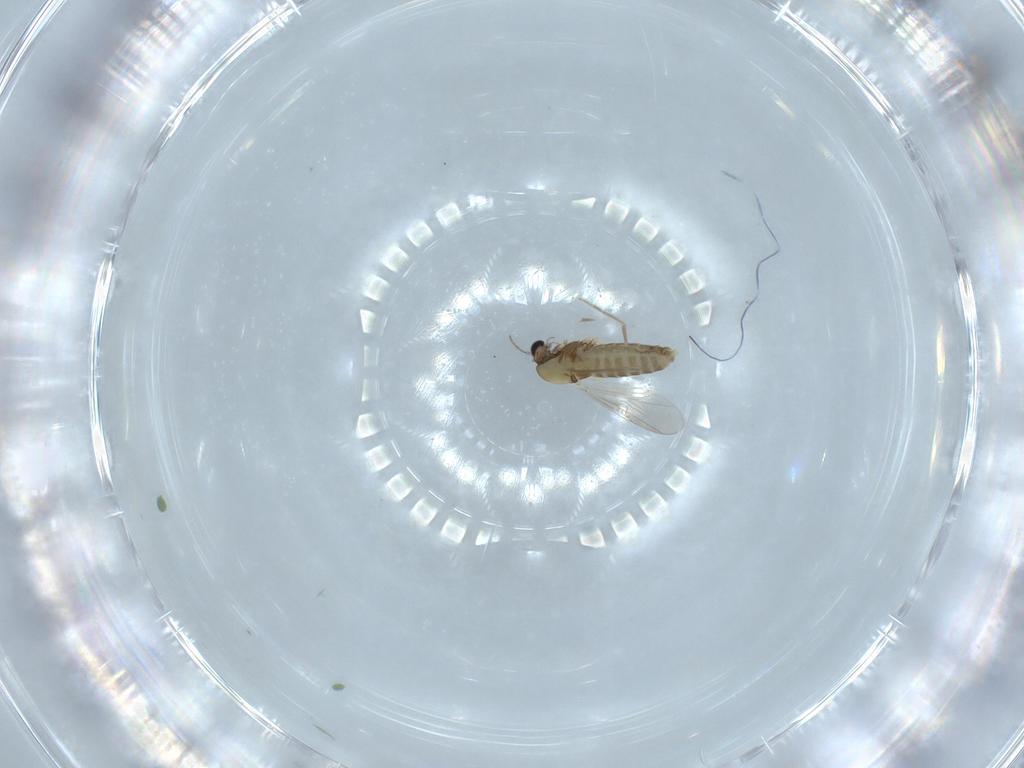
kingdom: Animalia
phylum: Arthropoda
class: Insecta
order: Diptera
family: Chironomidae
